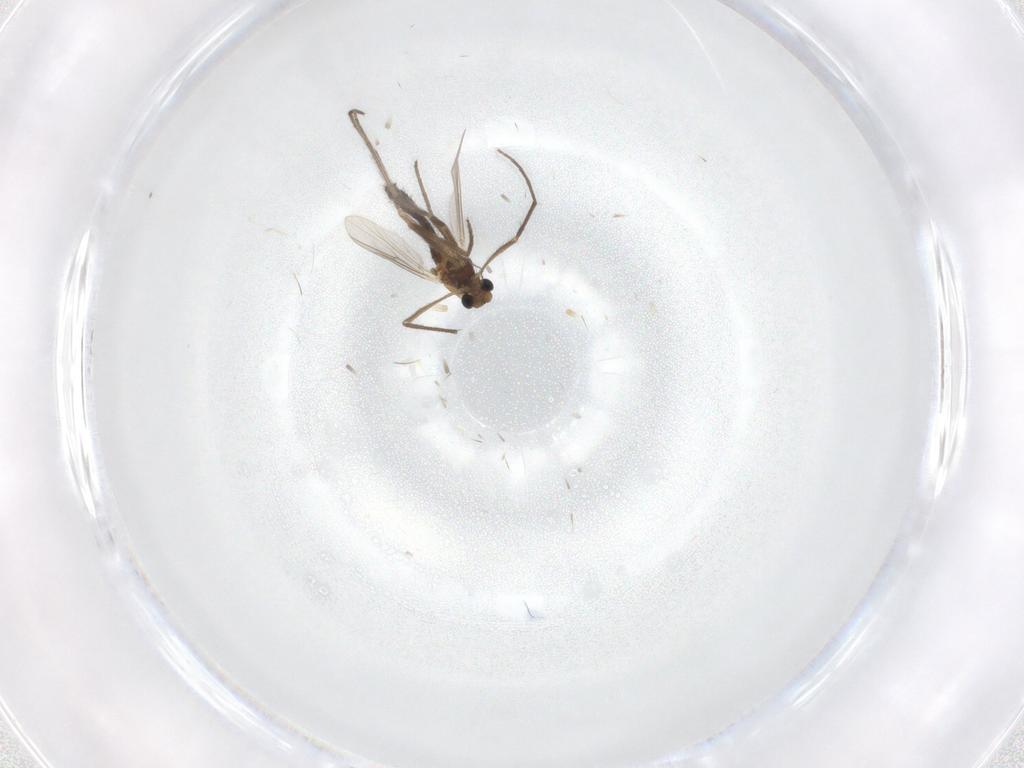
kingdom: Animalia
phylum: Arthropoda
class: Insecta
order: Diptera
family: Chironomidae
